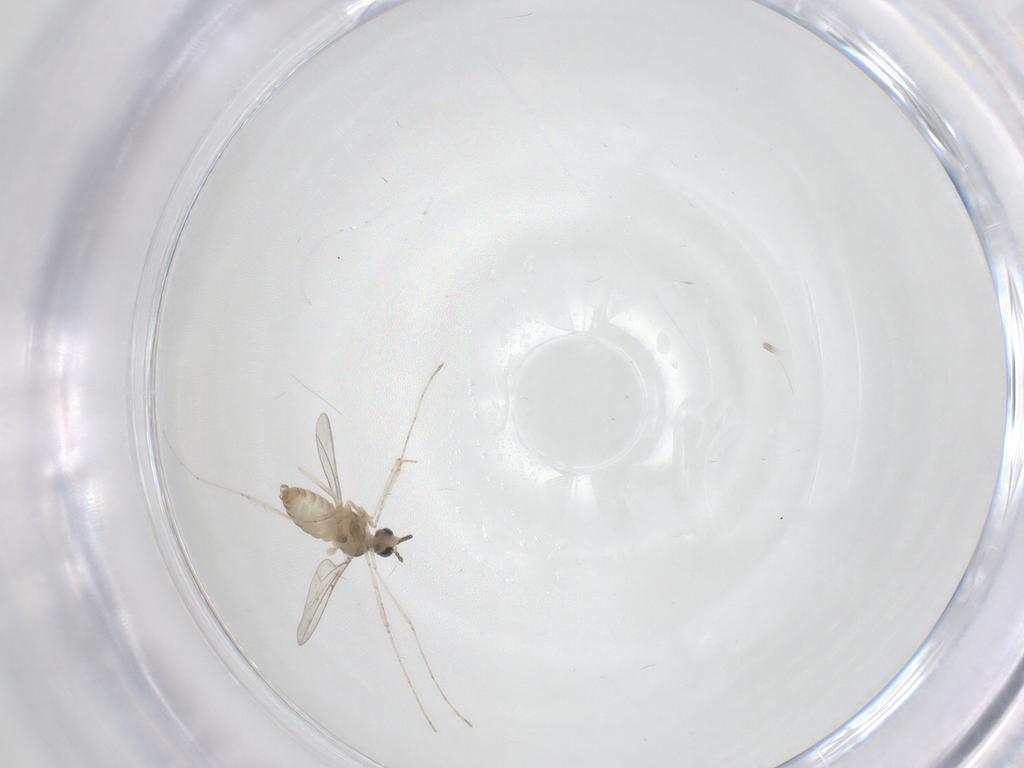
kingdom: Animalia
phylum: Arthropoda
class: Insecta
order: Diptera
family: Cecidomyiidae
